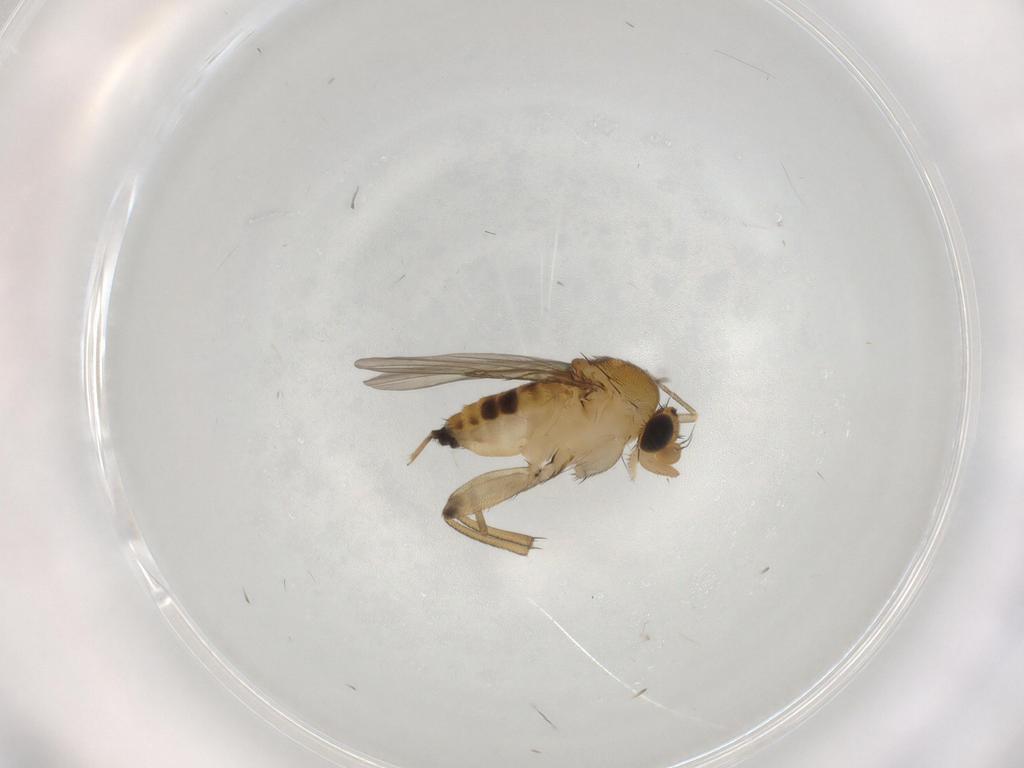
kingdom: Animalia
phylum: Arthropoda
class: Insecta
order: Diptera
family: Phoridae
